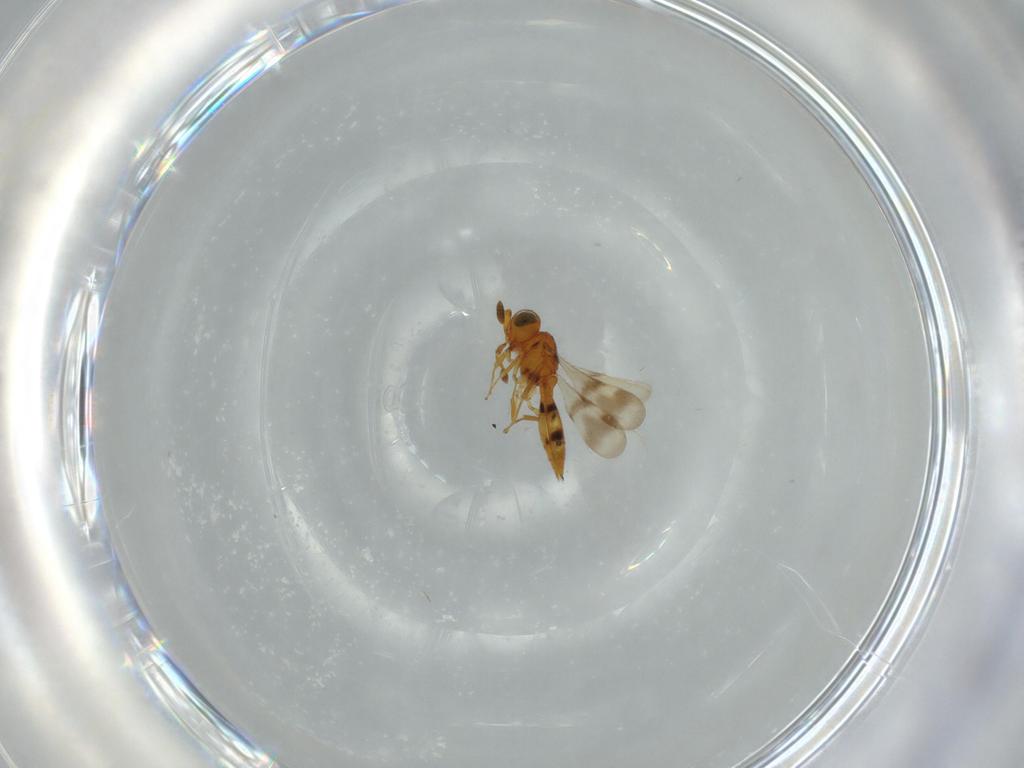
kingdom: Animalia
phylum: Arthropoda
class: Insecta
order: Hymenoptera
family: Scelionidae
